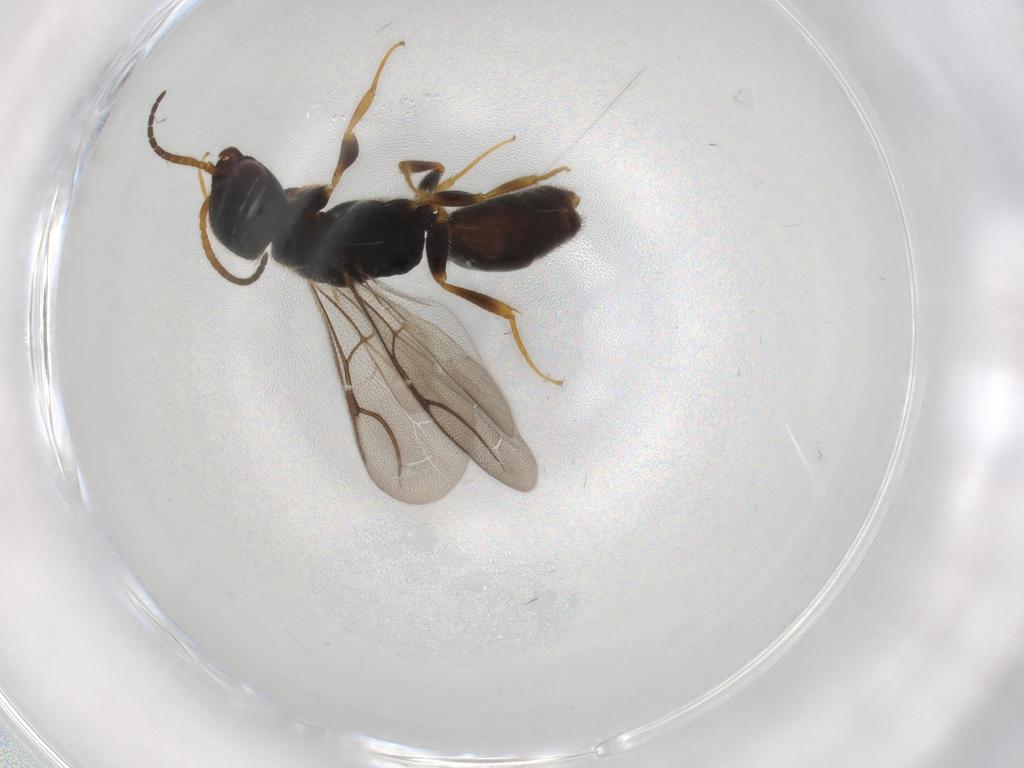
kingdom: Animalia
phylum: Arthropoda
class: Insecta
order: Hymenoptera
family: Bethylidae
